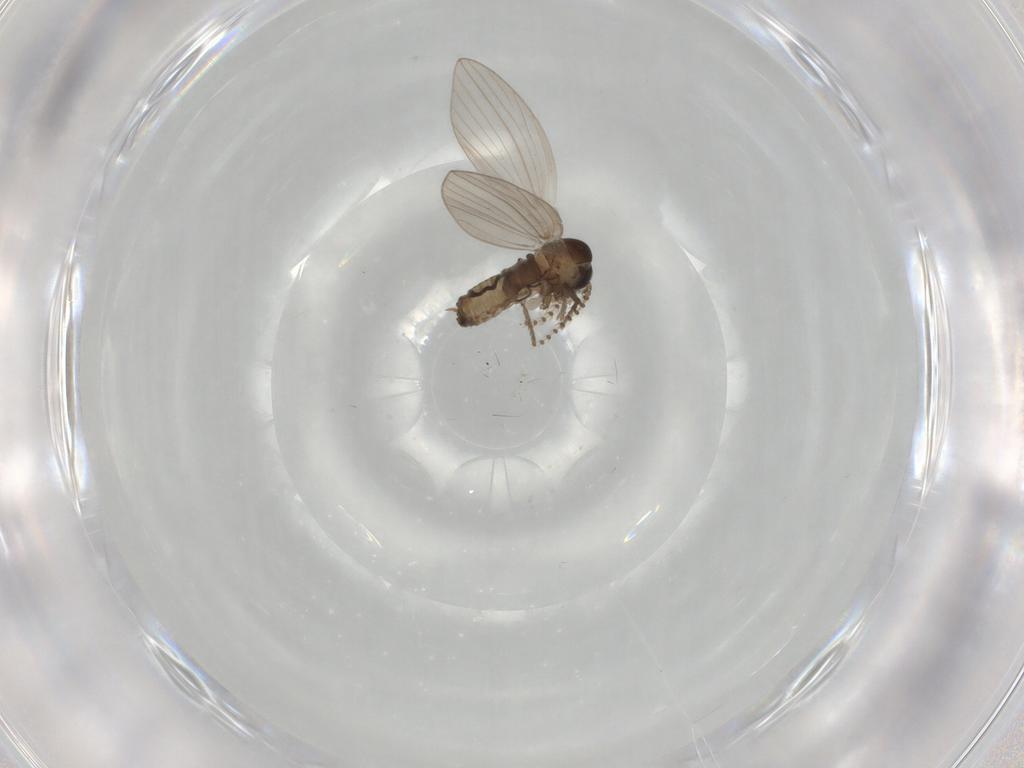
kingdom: Animalia
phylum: Arthropoda
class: Insecta
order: Diptera
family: Psychodidae
